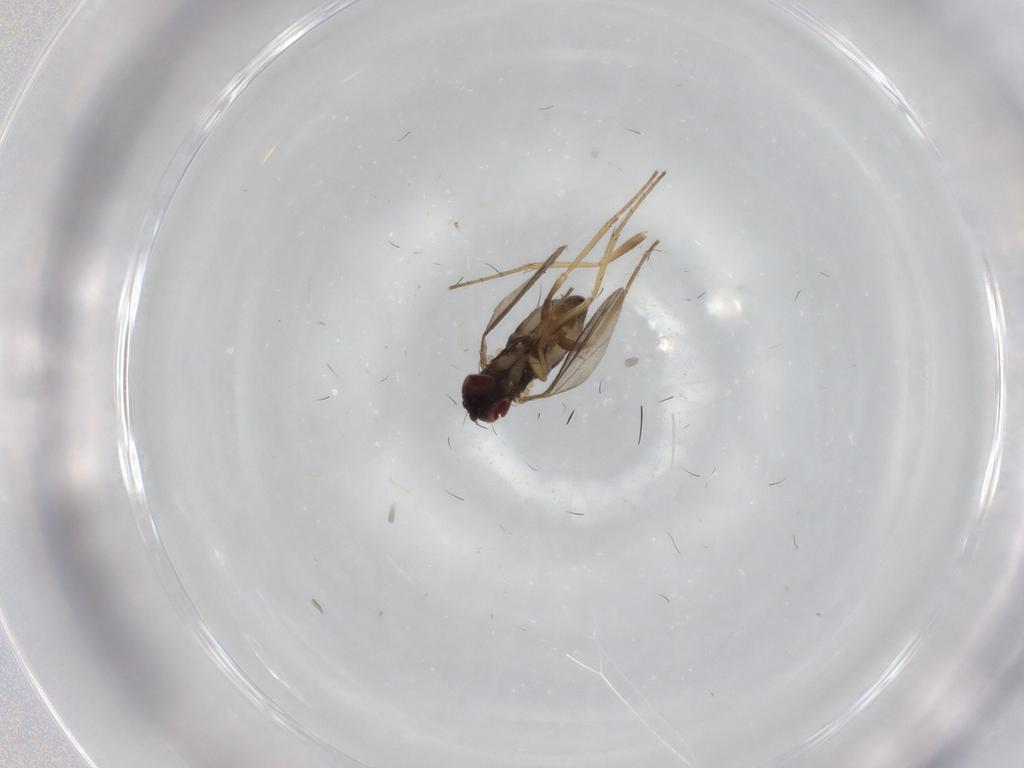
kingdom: Animalia
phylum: Arthropoda
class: Insecta
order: Diptera
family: Dolichopodidae
